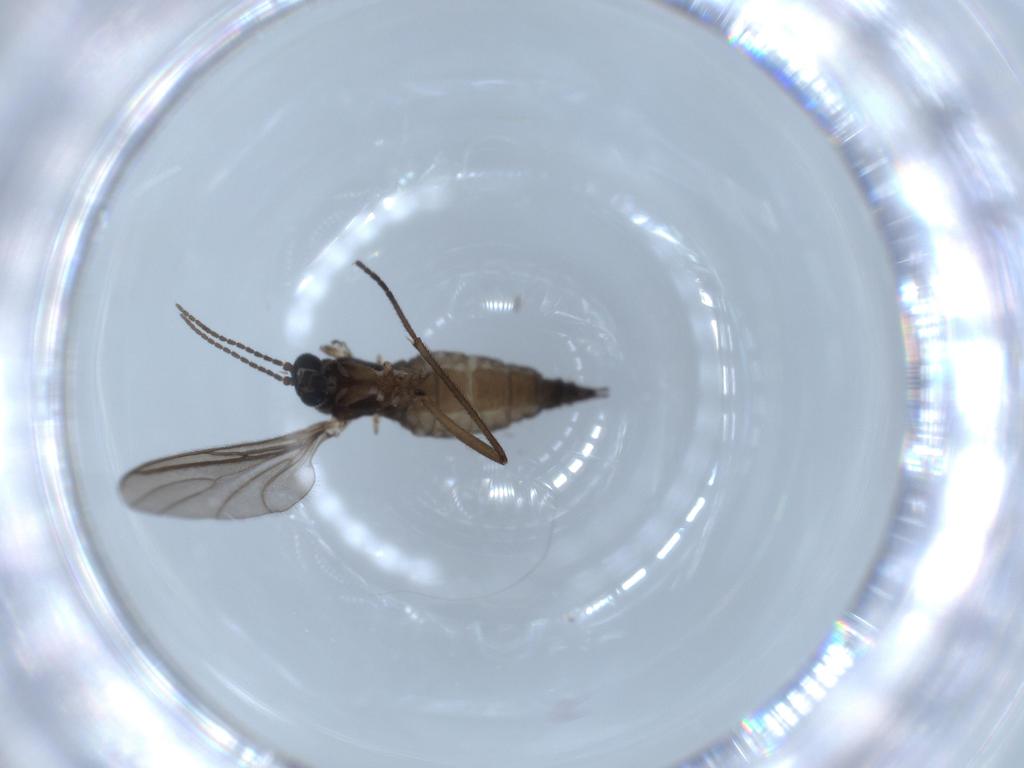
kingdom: Animalia
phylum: Arthropoda
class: Insecta
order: Diptera
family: Sciaridae
